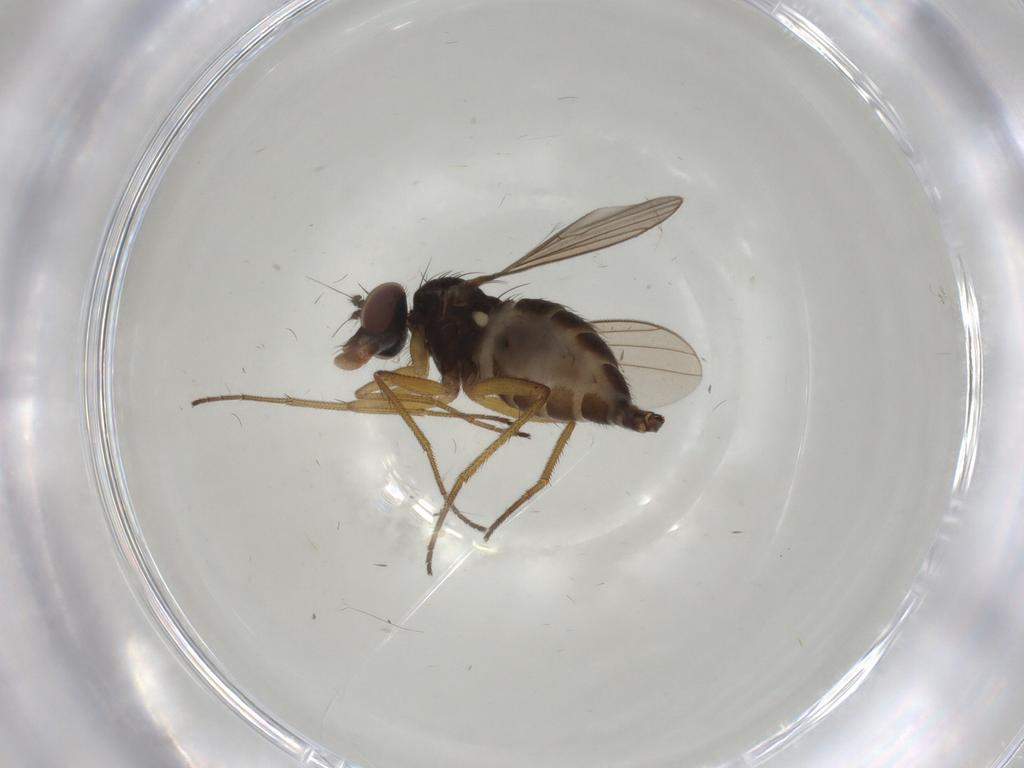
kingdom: Animalia
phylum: Arthropoda
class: Insecta
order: Diptera
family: Dolichopodidae
